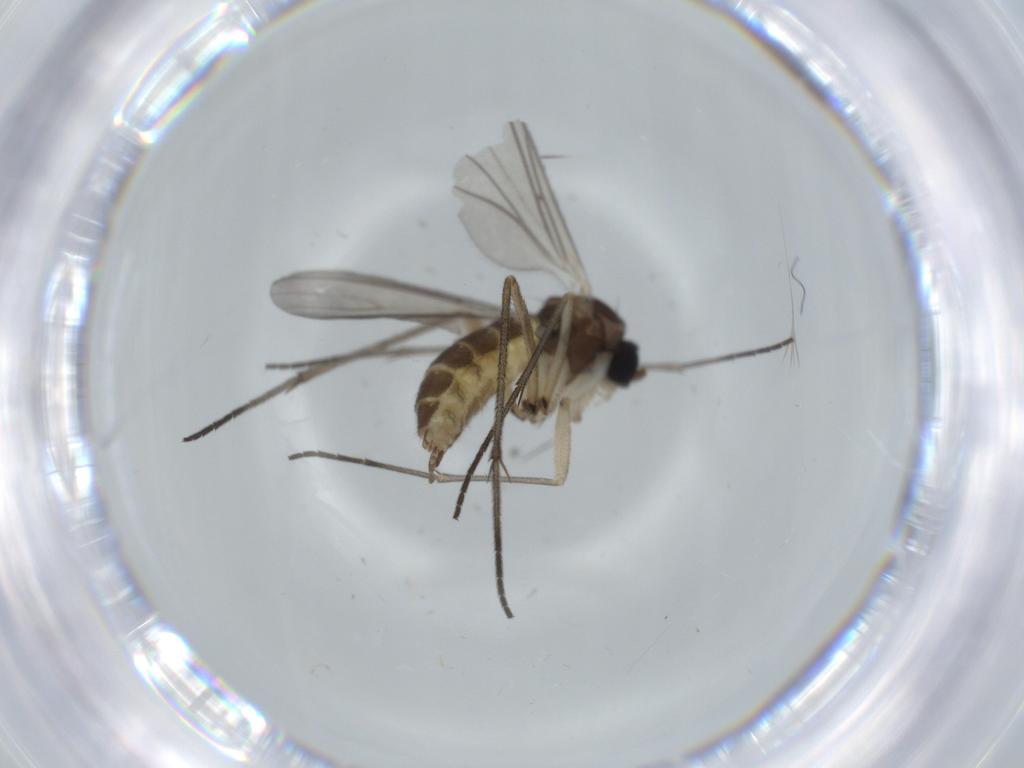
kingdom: Animalia
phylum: Arthropoda
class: Insecta
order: Diptera
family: Sciaridae
